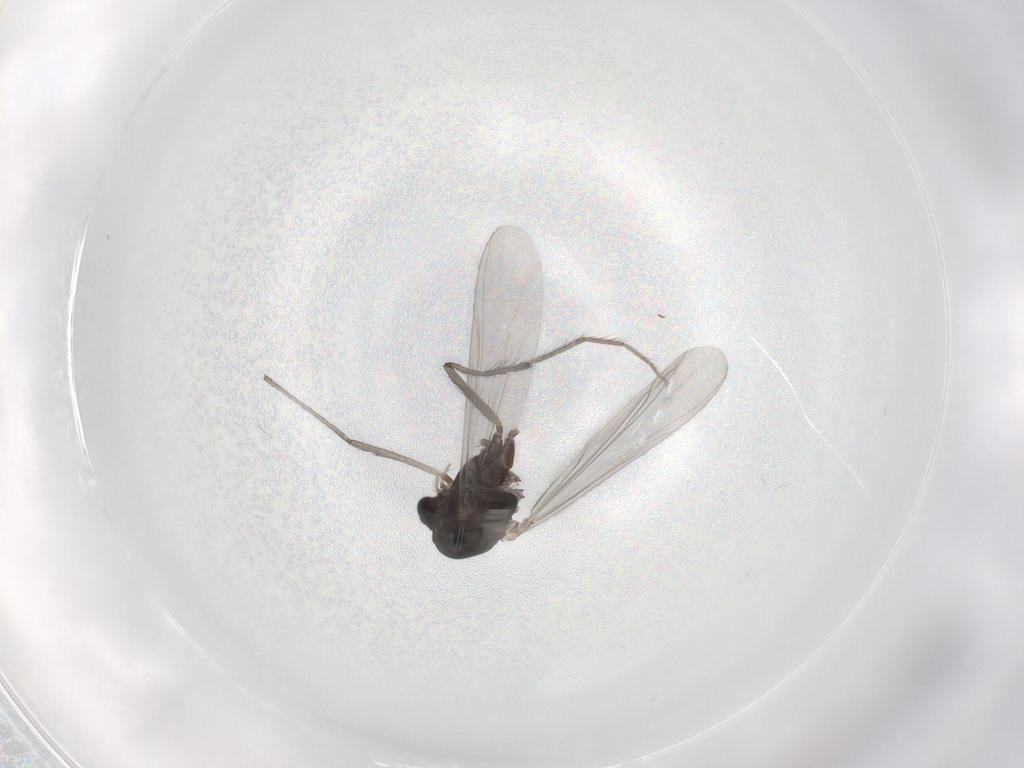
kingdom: Animalia
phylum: Arthropoda
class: Insecta
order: Diptera
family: Chironomidae
